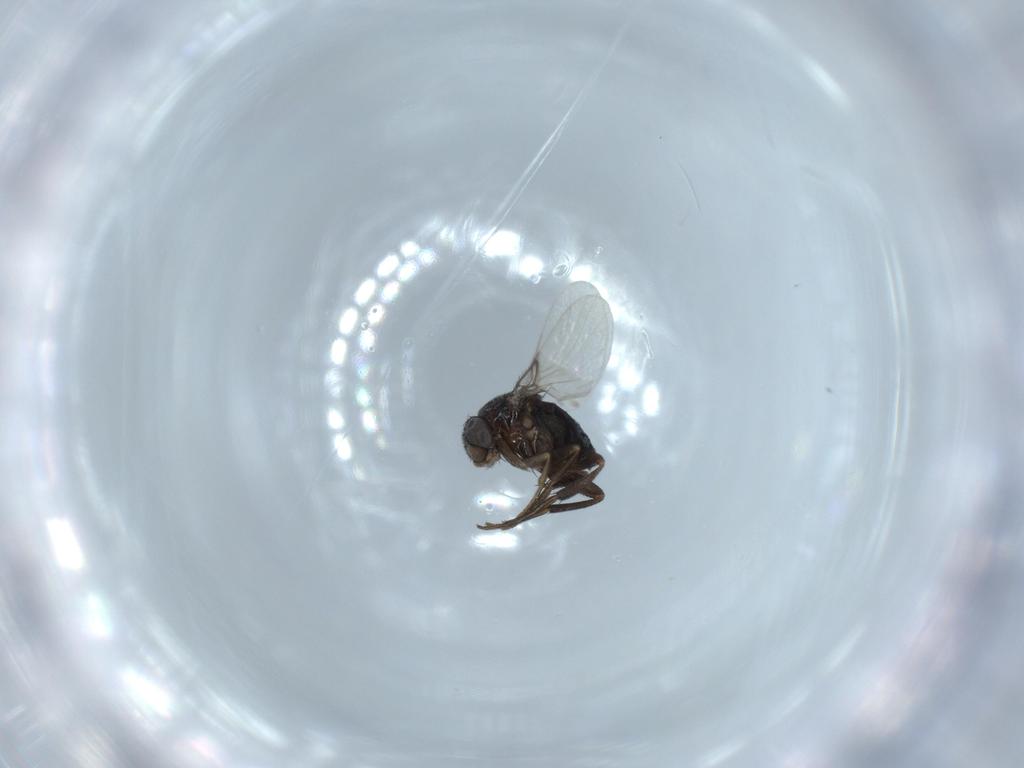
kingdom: Animalia
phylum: Arthropoda
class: Insecta
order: Diptera
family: Phoridae
